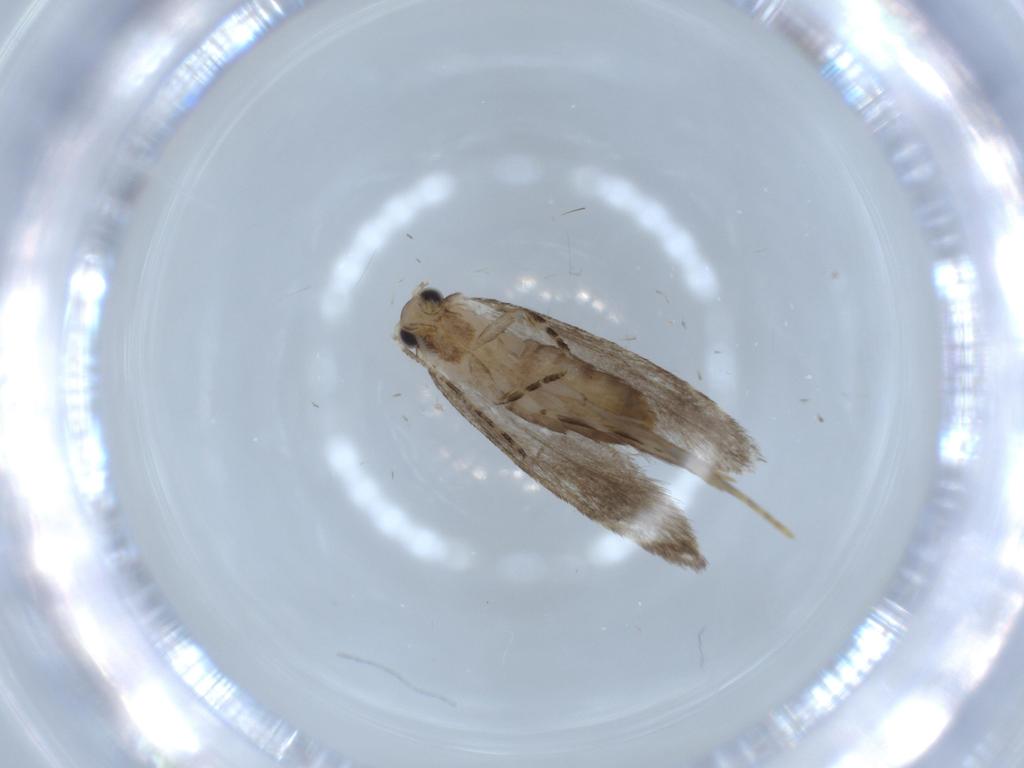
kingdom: Animalia
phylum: Arthropoda
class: Insecta
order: Lepidoptera
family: Tineidae
